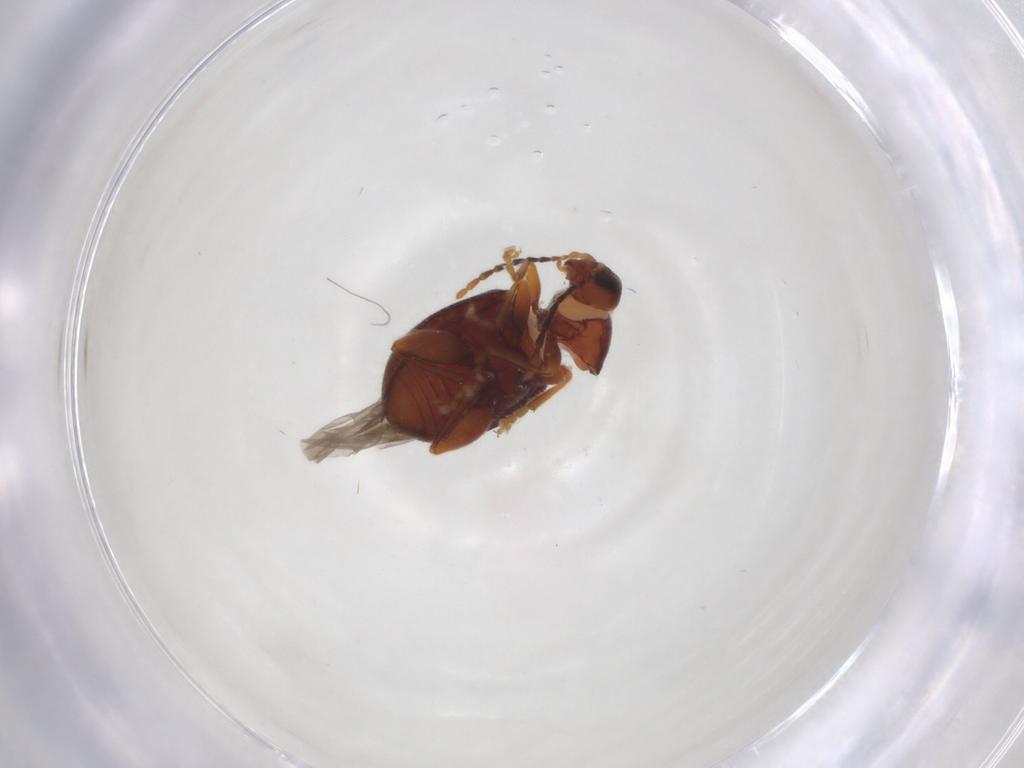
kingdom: Animalia
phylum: Arthropoda
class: Insecta
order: Coleoptera
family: Chrysomelidae
